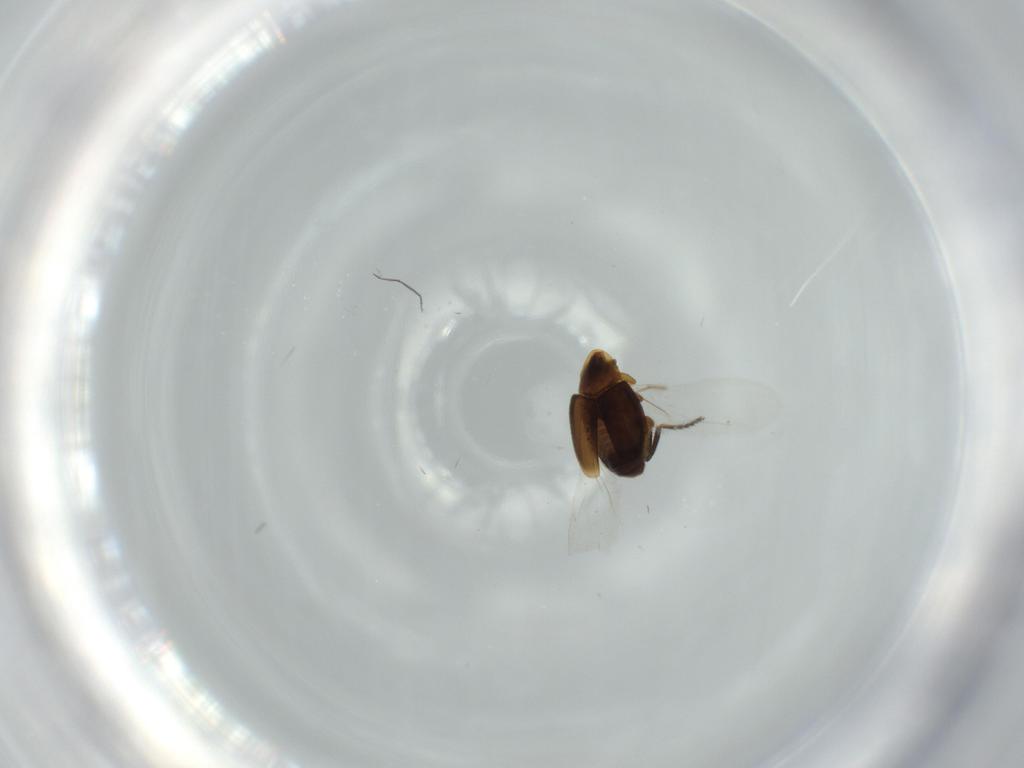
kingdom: Animalia
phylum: Arthropoda
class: Insecta
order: Coleoptera
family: Corylophidae
